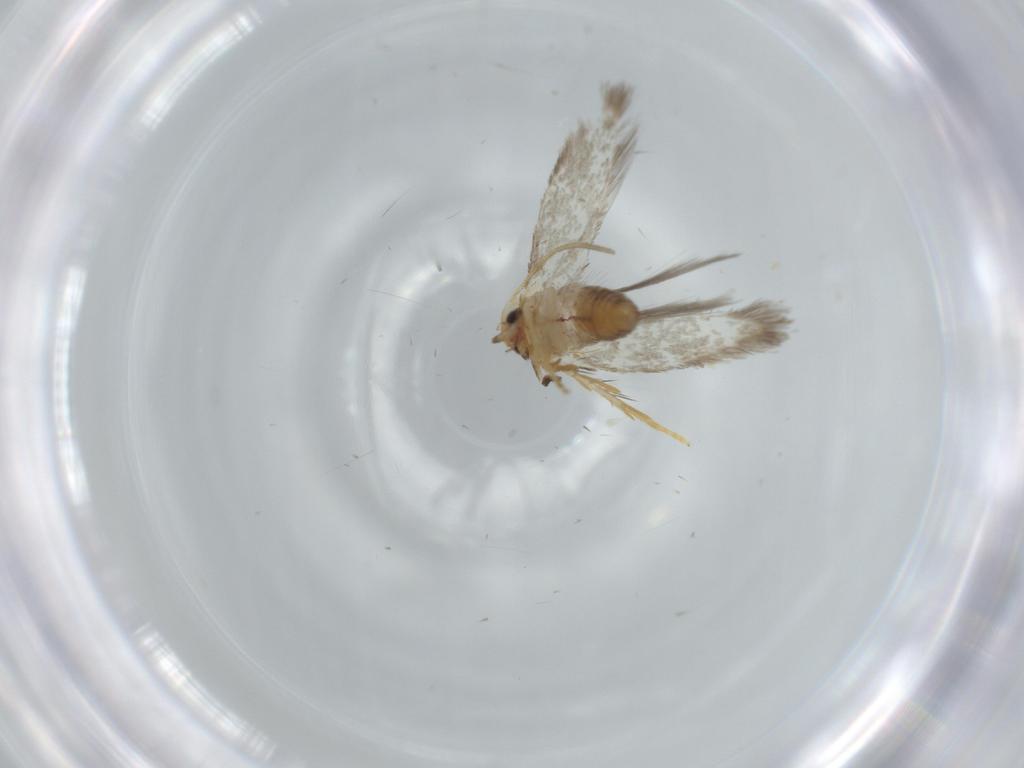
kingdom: Animalia
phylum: Arthropoda
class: Insecta
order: Lepidoptera
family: Nepticulidae
